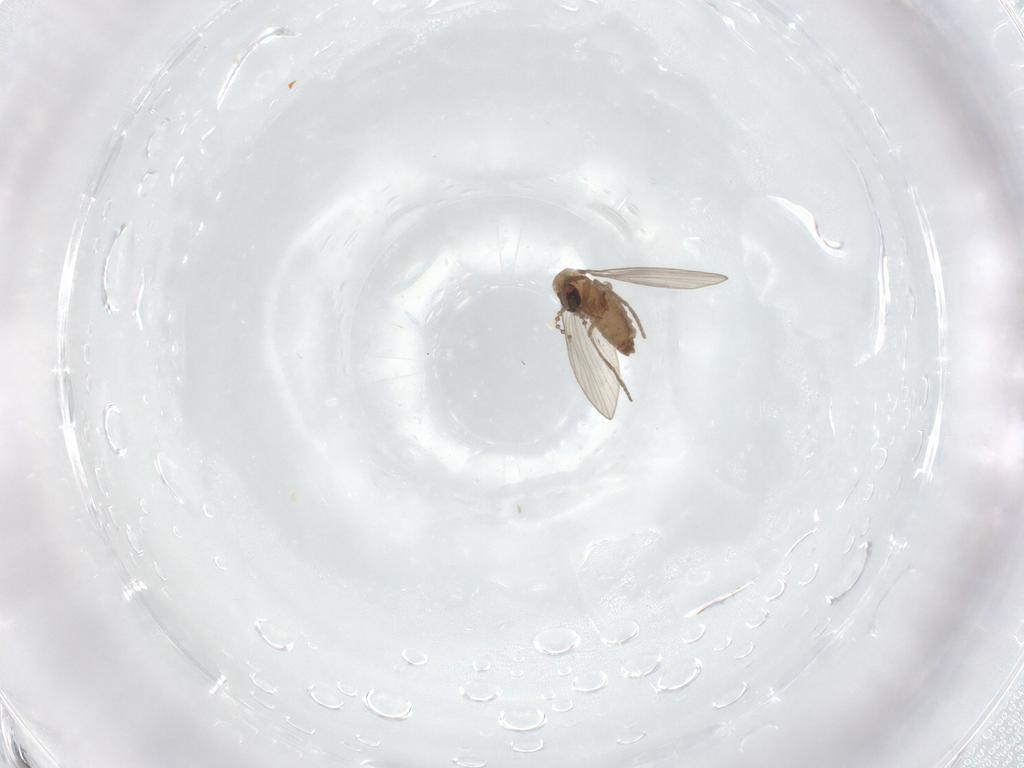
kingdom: Animalia
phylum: Arthropoda
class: Insecta
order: Diptera
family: Psychodidae
